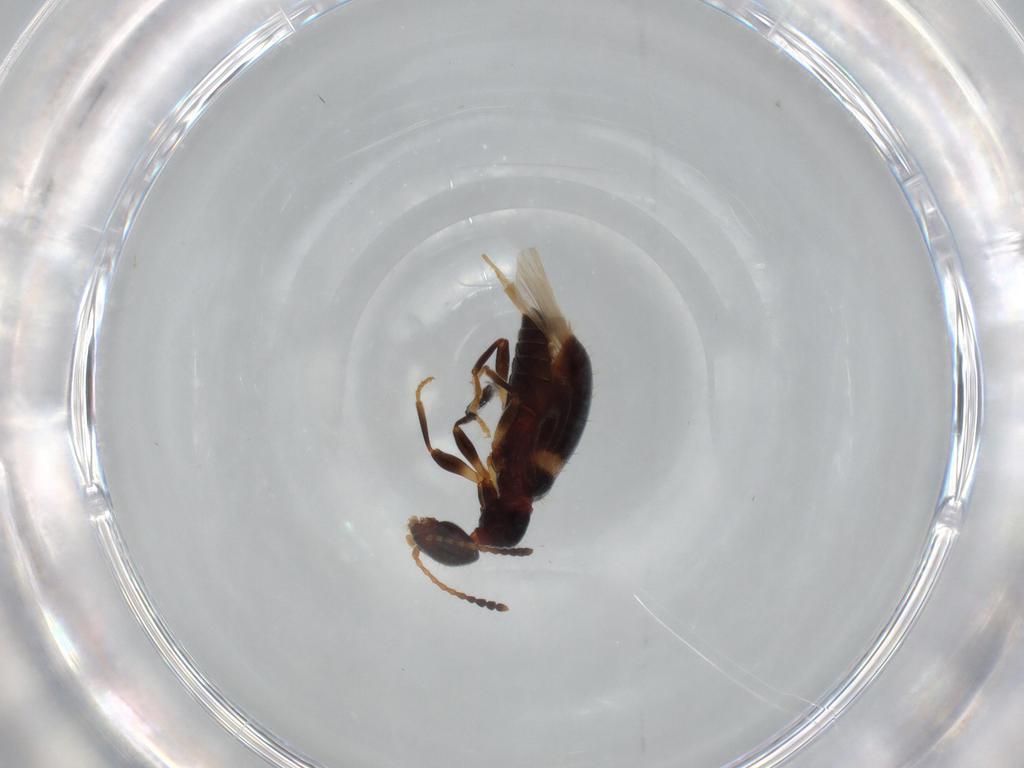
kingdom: Animalia
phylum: Arthropoda
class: Insecta
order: Coleoptera
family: Anthicidae
